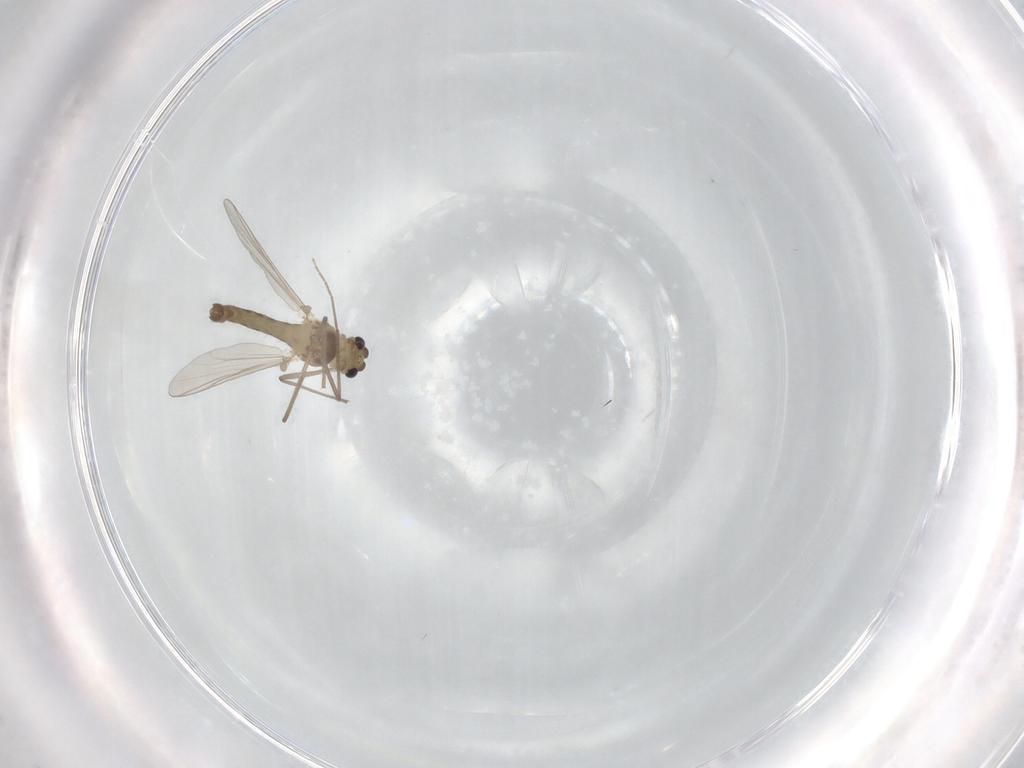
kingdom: Animalia
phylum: Arthropoda
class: Insecta
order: Diptera
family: Chironomidae
